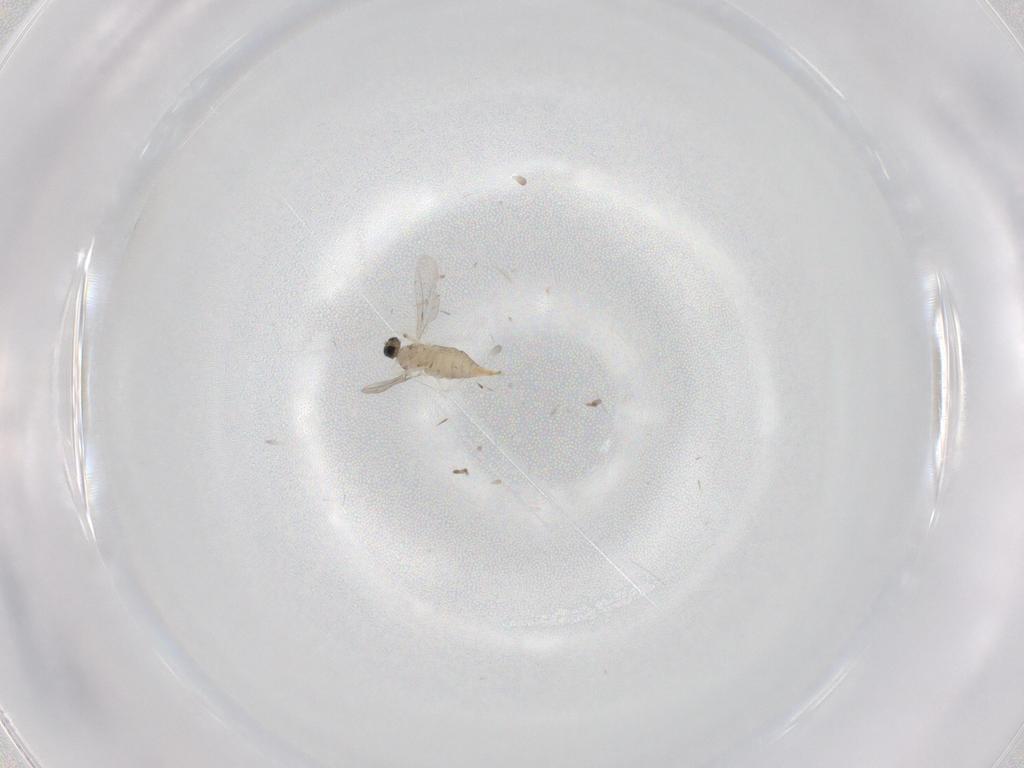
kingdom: Animalia
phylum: Arthropoda
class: Insecta
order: Diptera
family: Cecidomyiidae
